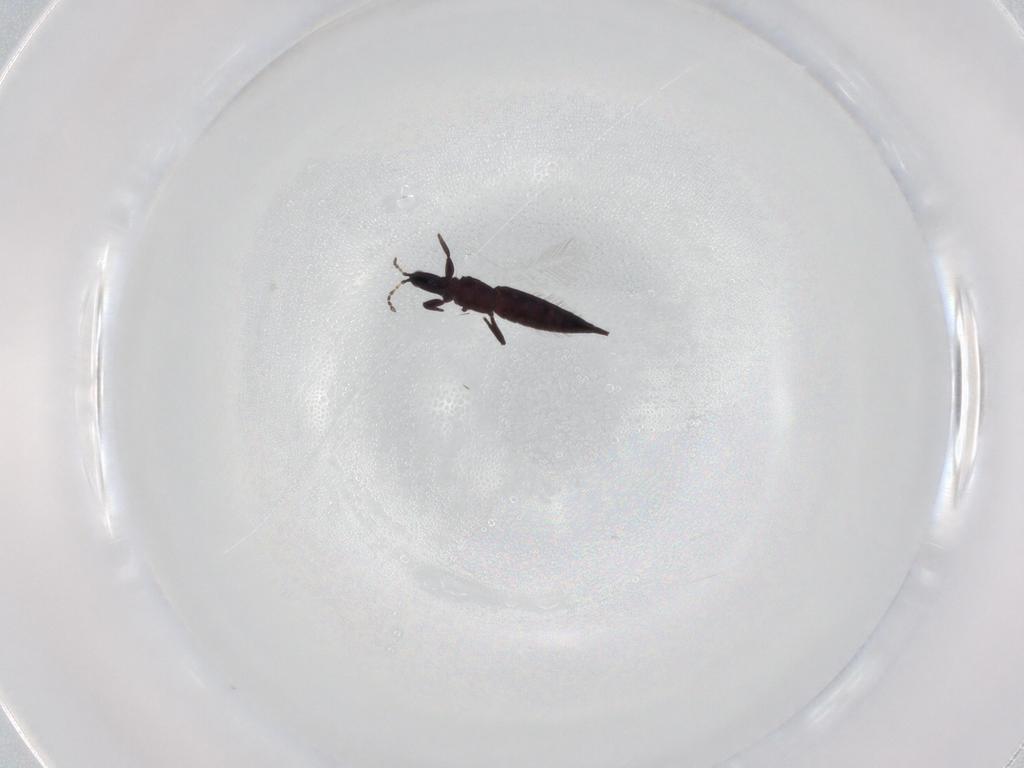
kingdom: Animalia
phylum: Arthropoda
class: Insecta
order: Thysanoptera
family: Phlaeothripidae
